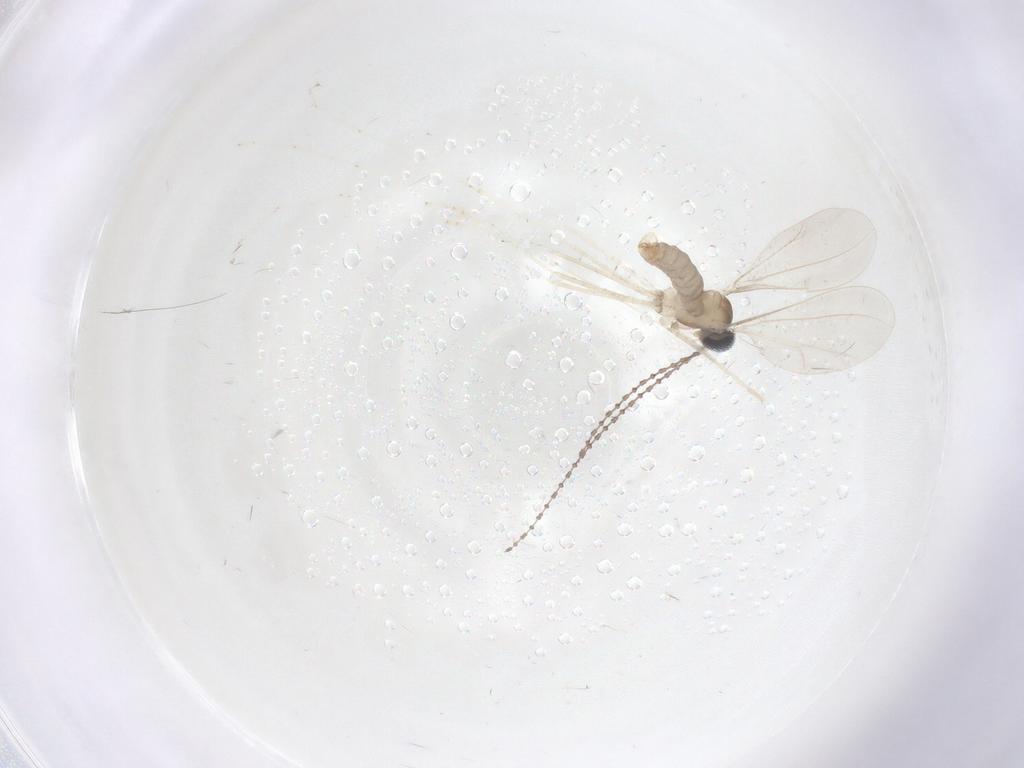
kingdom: Animalia
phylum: Arthropoda
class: Insecta
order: Diptera
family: Cecidomyiidae
